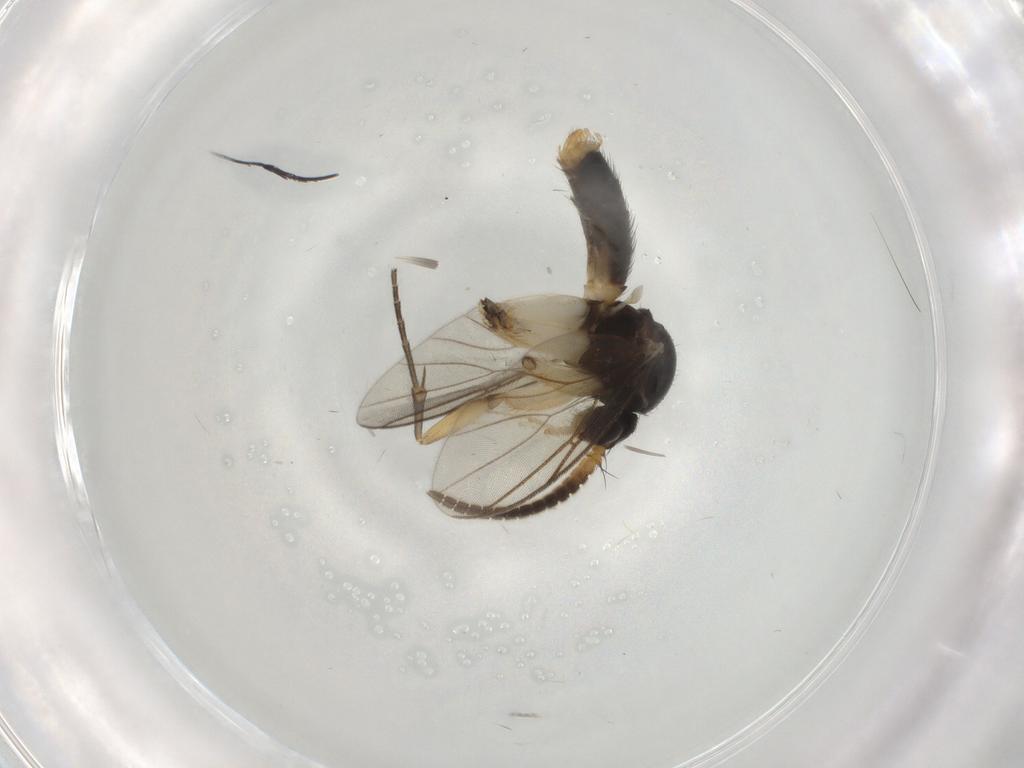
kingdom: Animalia
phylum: Arthropoda
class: Insecta
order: Diptera
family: Mycetophilidae
